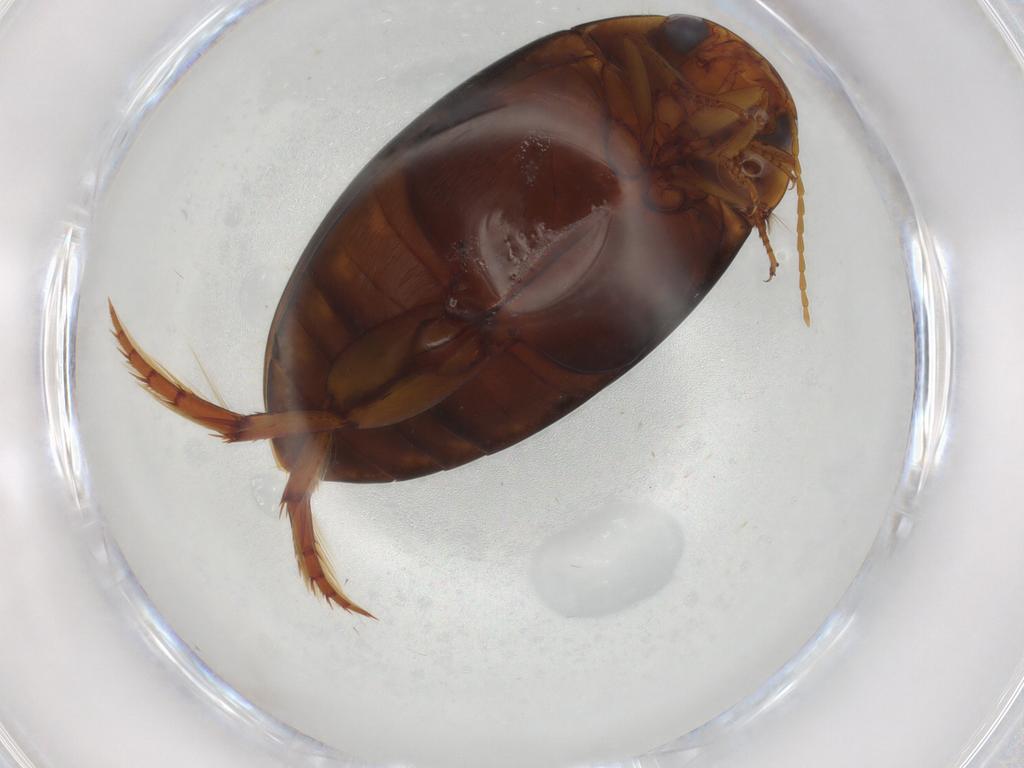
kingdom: Animalia
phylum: Arthropoda
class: Insecta
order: Coleoptera
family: Dytiscidae
